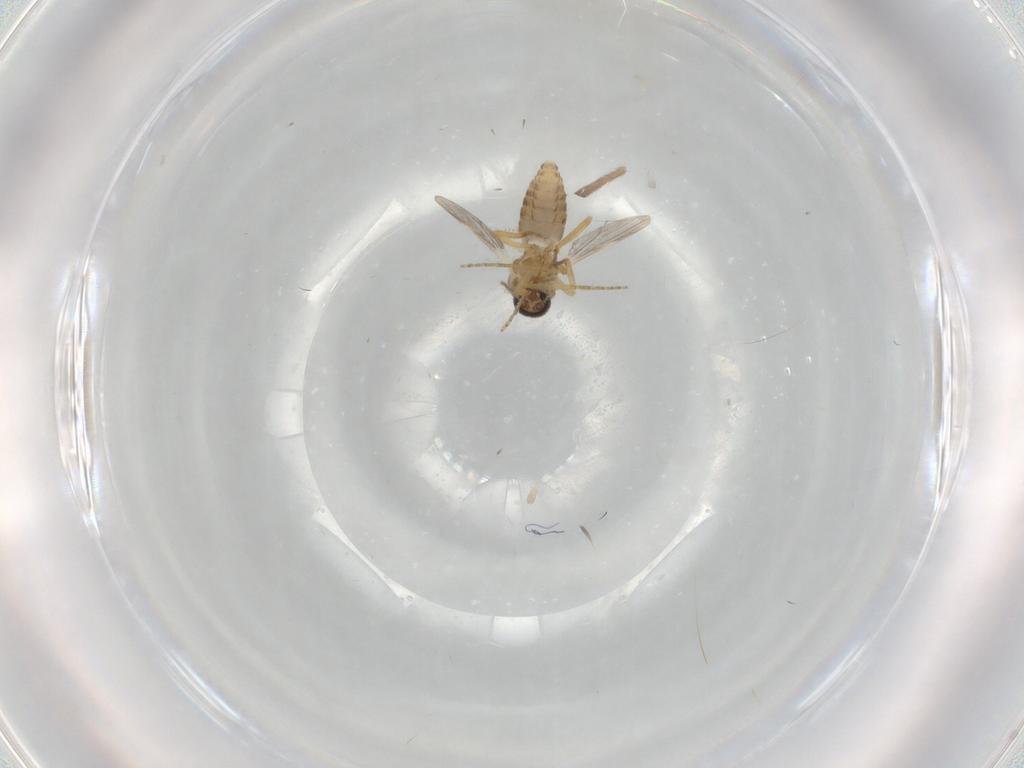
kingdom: Animalia
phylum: Arthropoda
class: Insecta
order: Diptera
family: Ceratopogonidae
